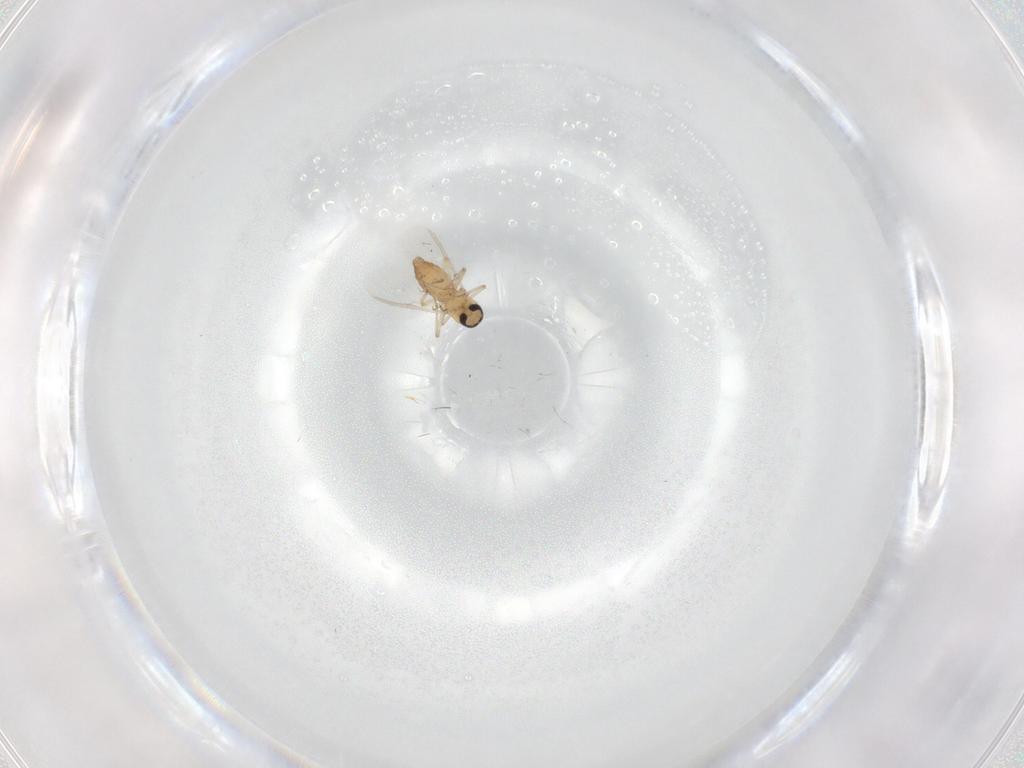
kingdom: Animalia
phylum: Arthropoda
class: Insecta
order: Diptera
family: Ceratopogonidae
